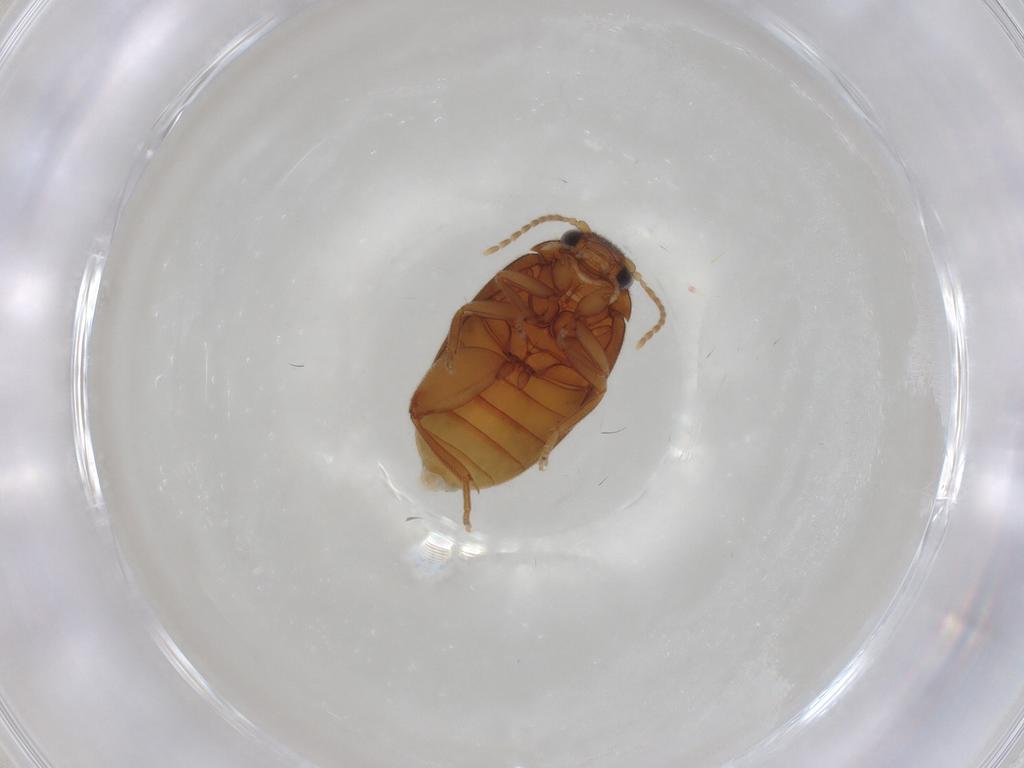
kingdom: Animalia
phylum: Arthropoda
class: Insecta
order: Coleoptera
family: Scirtidae
